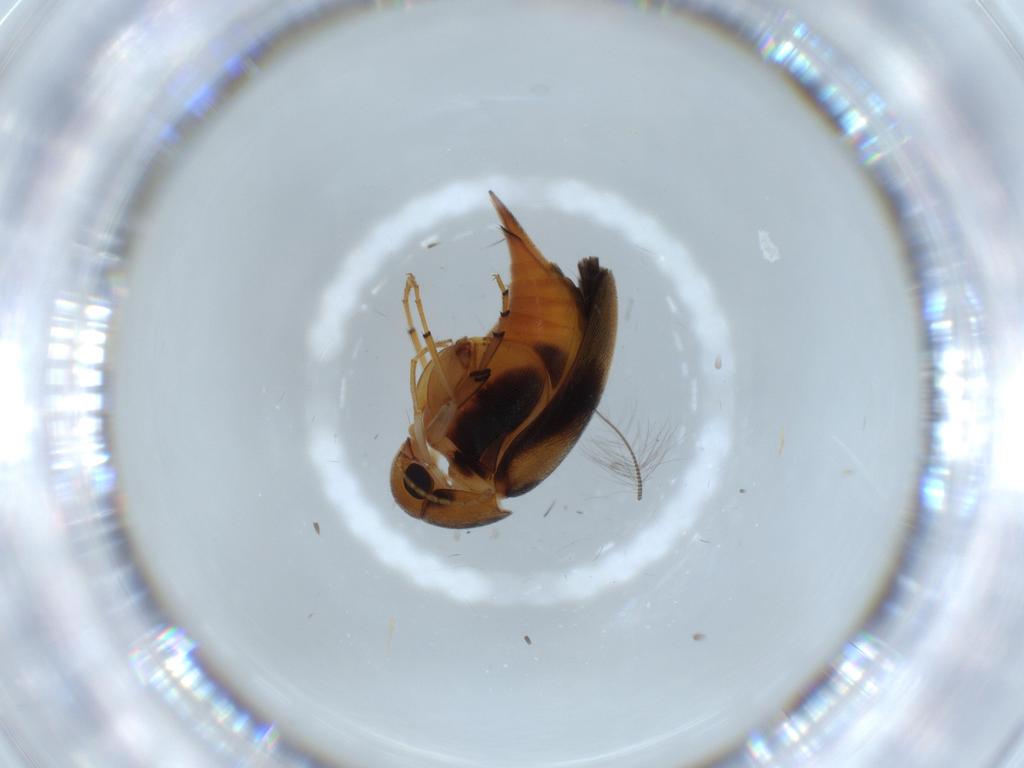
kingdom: Animalia
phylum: Arthropoda
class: Insecta
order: Coleoptera
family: Mordellidae
